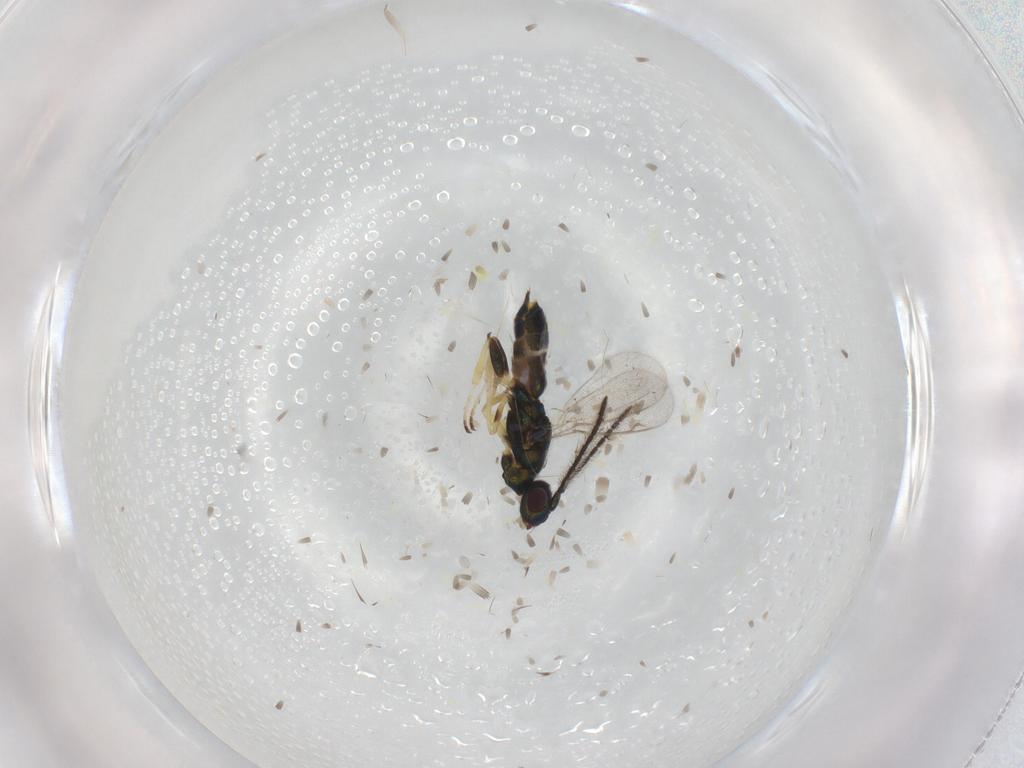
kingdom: Animalia
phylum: Arthropoda
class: Insecta
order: Hymenoptera
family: Eupelmidae
